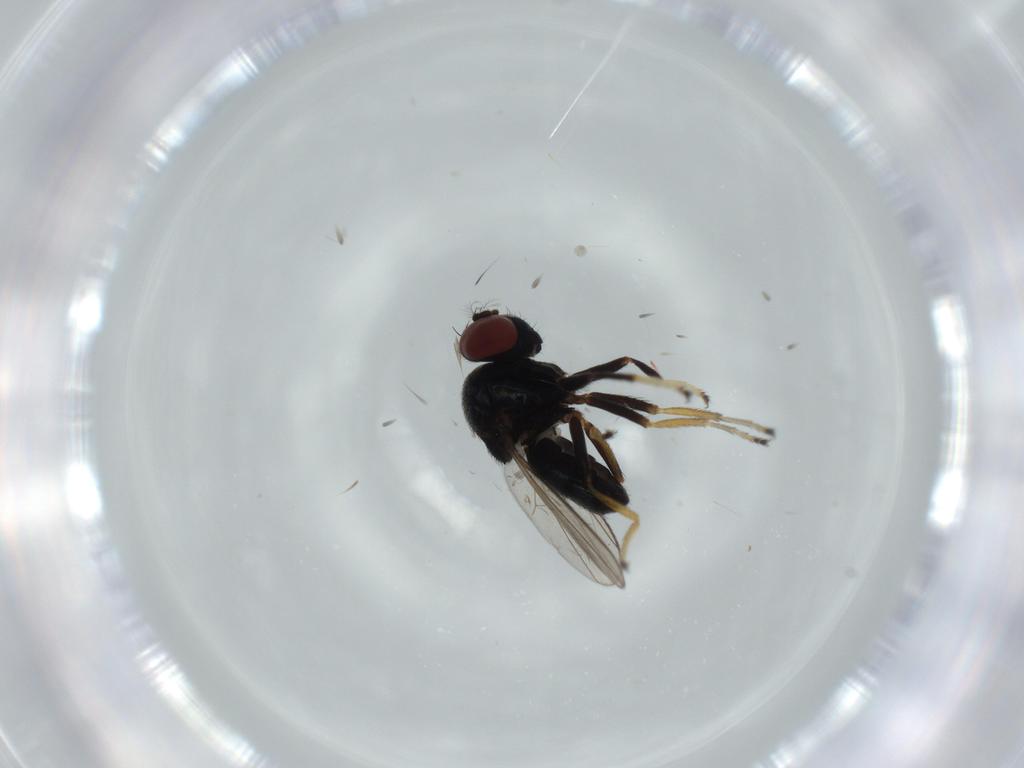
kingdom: Animalia
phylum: Arthropoda
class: Insecta
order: Diptera
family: Ephydridae
